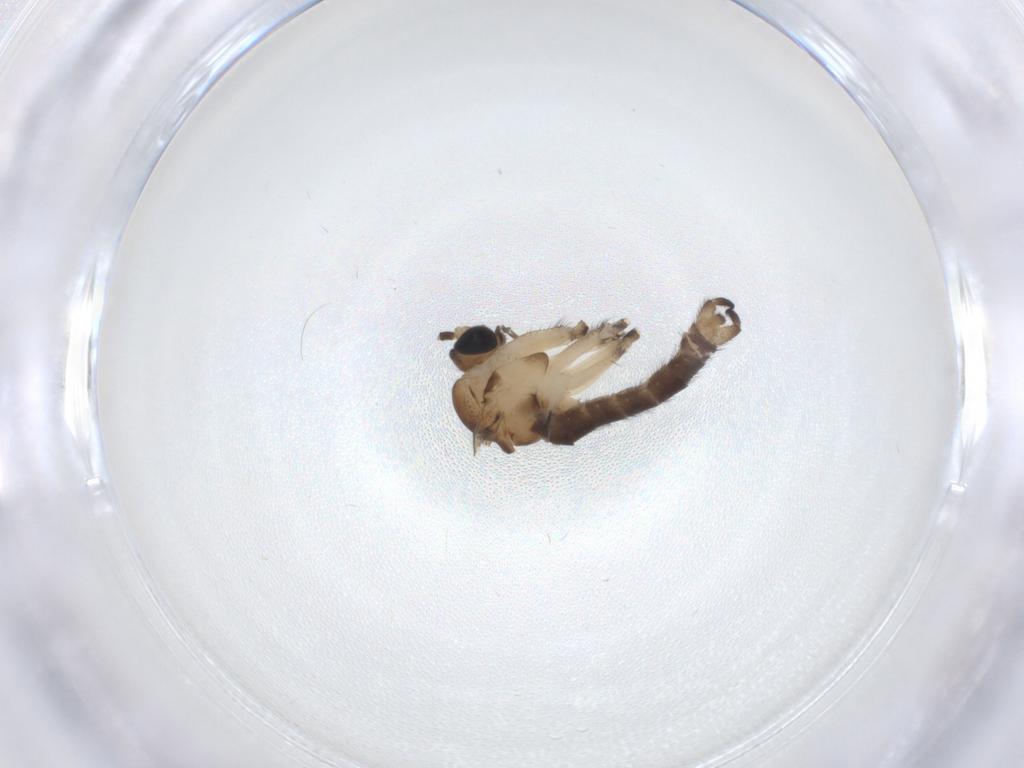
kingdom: Animalia
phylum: Arthropoda
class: Insecta
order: Diptera
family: Sciaridae
